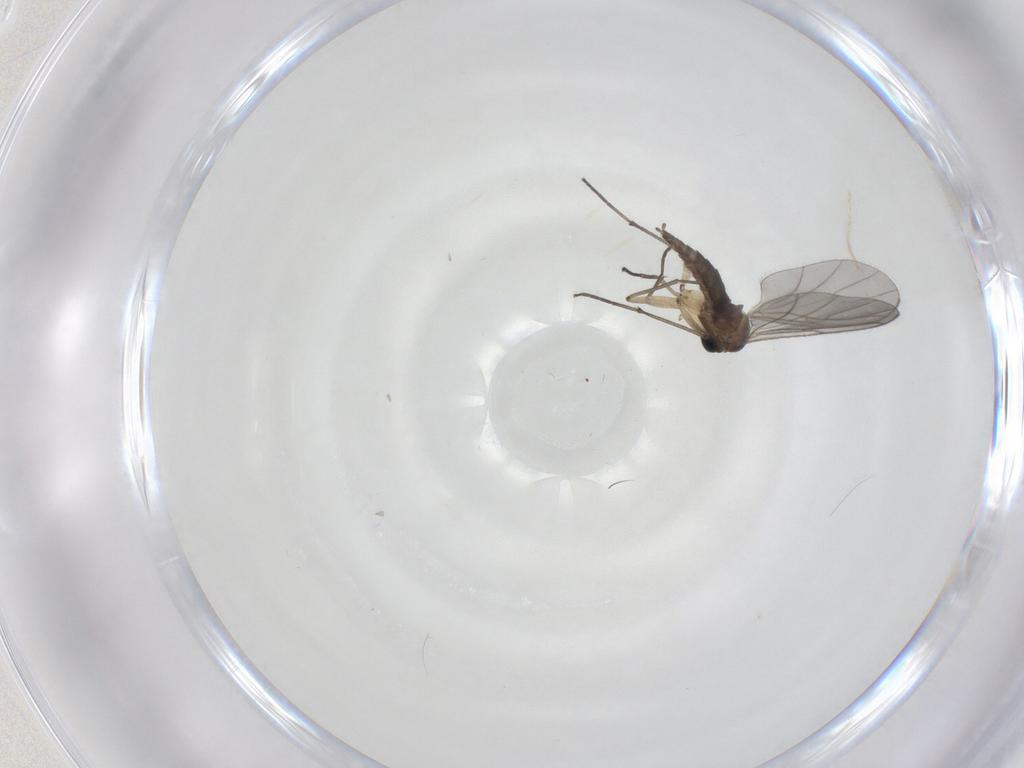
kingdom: Animalia
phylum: Arthropoda
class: Insecta
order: Diptera
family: Sciaridae
